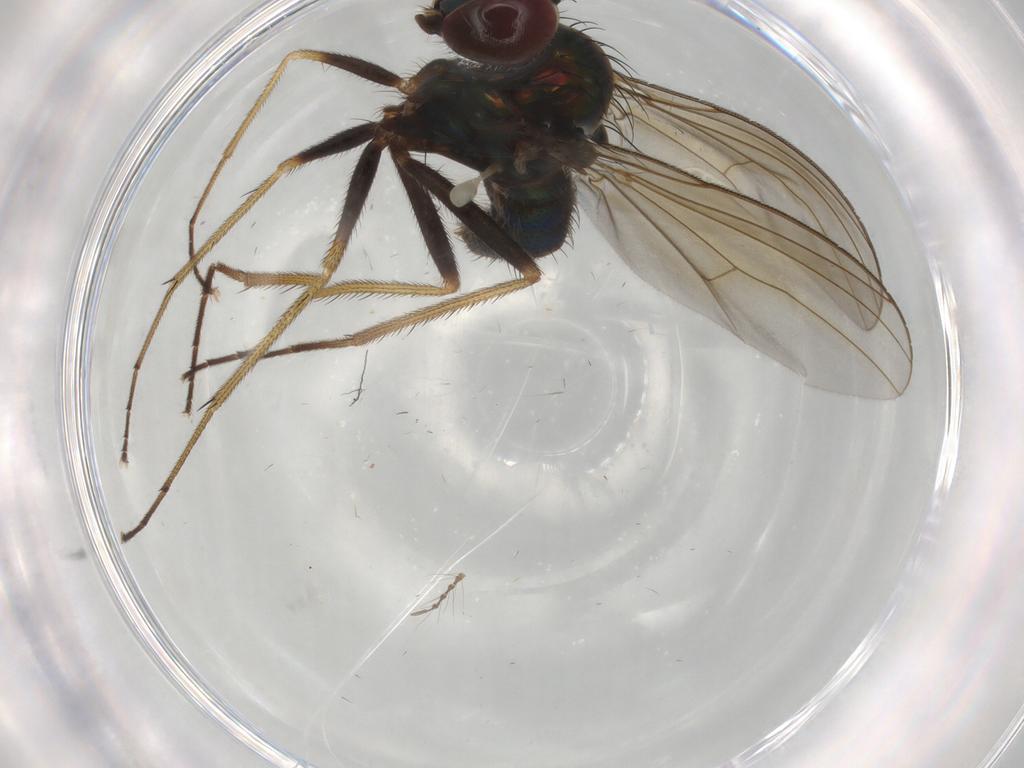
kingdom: Animalia
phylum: Arthropoda
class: Insecta
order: Diptera
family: Dolichopodidae
